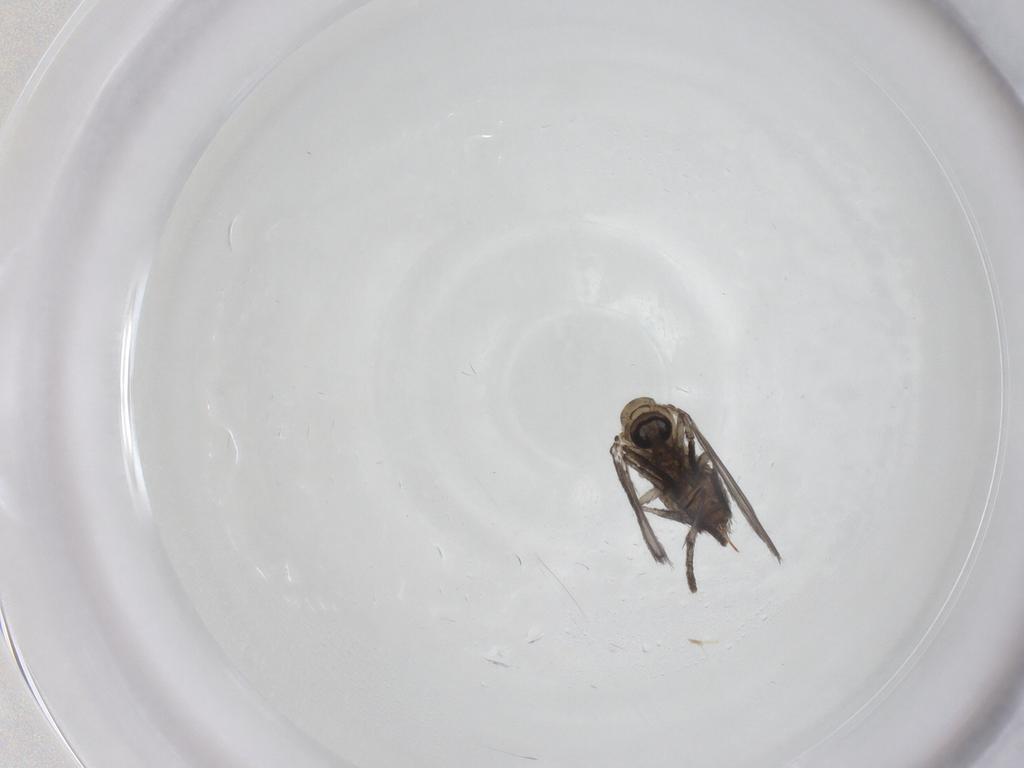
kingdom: Animalia
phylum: Arthropoda
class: Insecta
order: Diptera
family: Psychodidae
